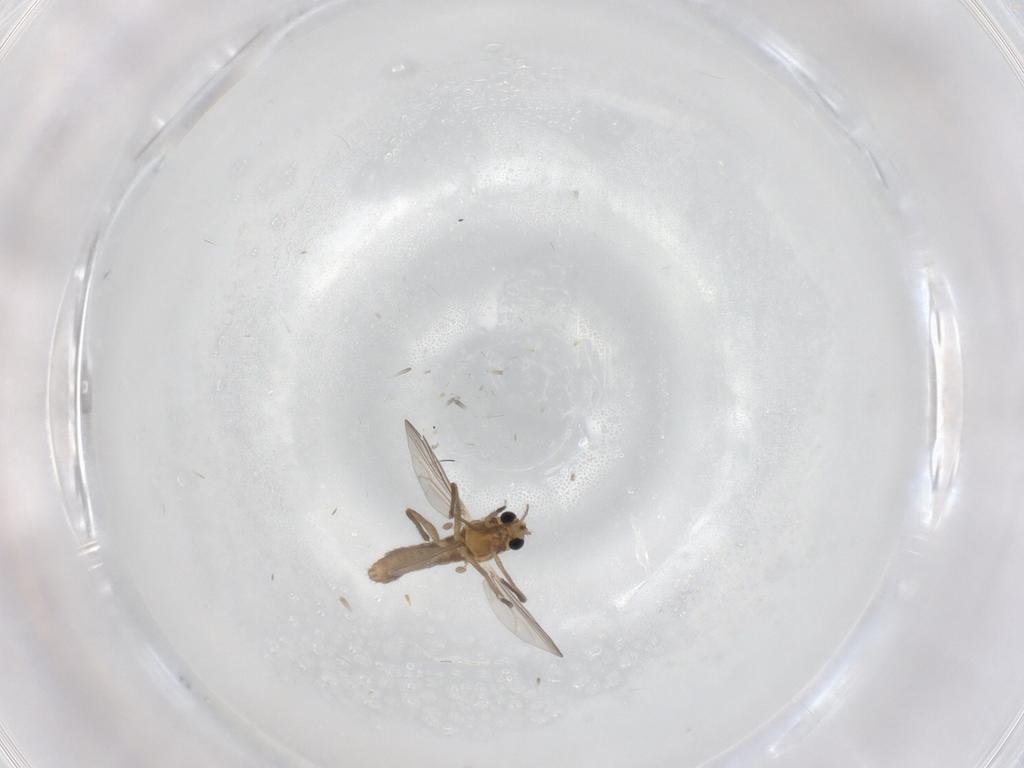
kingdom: Animalia
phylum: Arthropoda
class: Insecta
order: Diptera
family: Chironomidae
